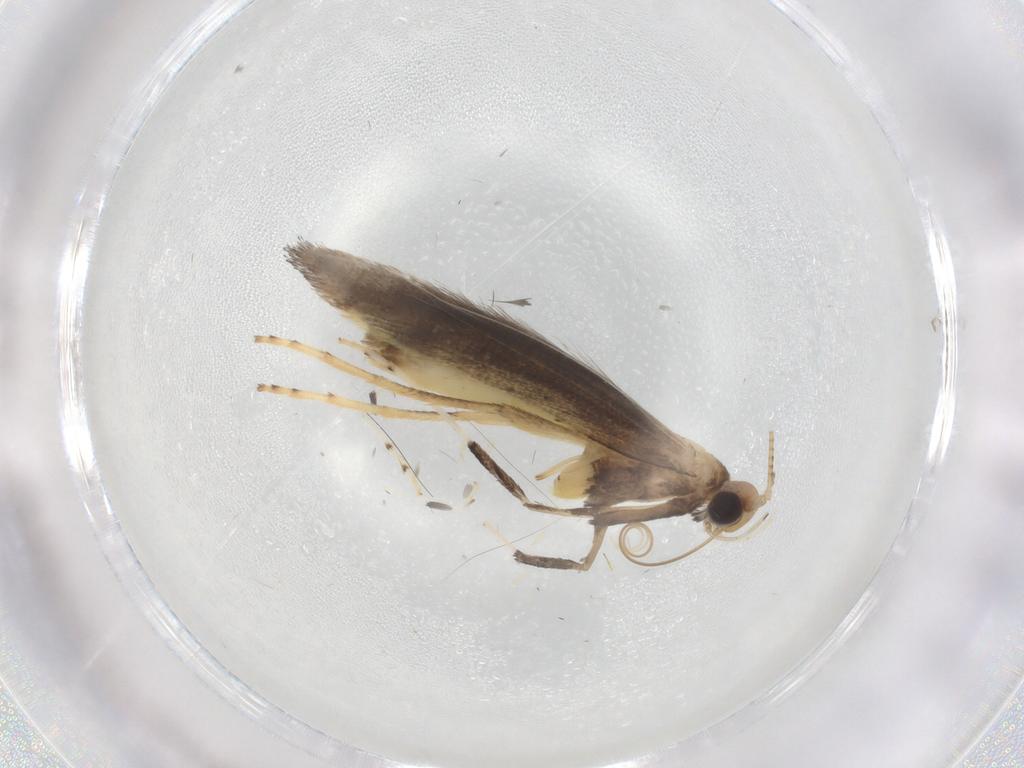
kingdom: Animalia
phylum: Arthropoda
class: Insecta
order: Lepidoptera
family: Gracillariidae
